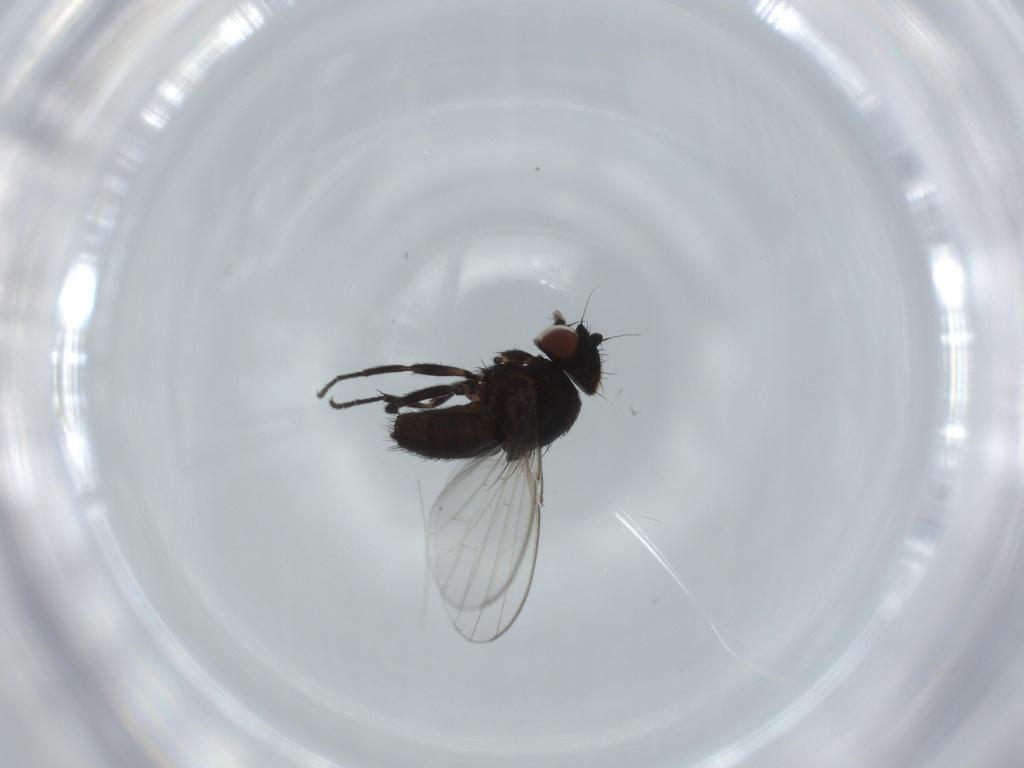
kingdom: Animalia
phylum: Arthropoda
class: Insecta
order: Diptera
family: Milichiidae
